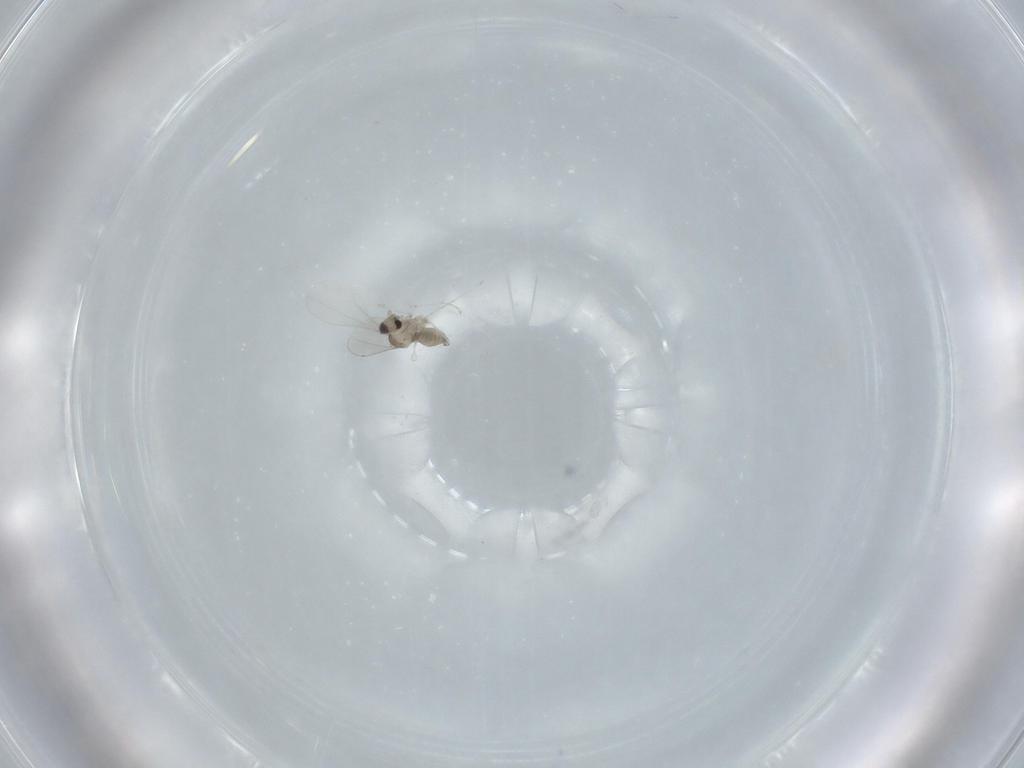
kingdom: Animalia
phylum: Arthropoda
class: Insecta
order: Diptera
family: Cecidomyiidae
